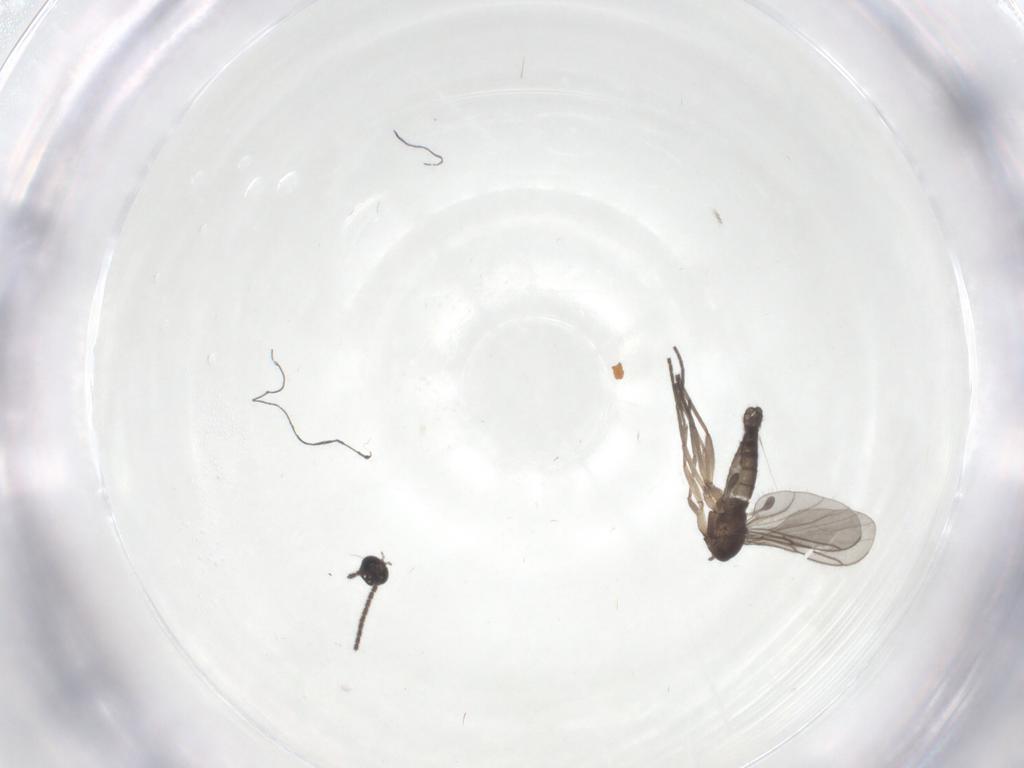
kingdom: Animalia
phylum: Arthropoda
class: Insecta
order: Diptera
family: Sciaridae
